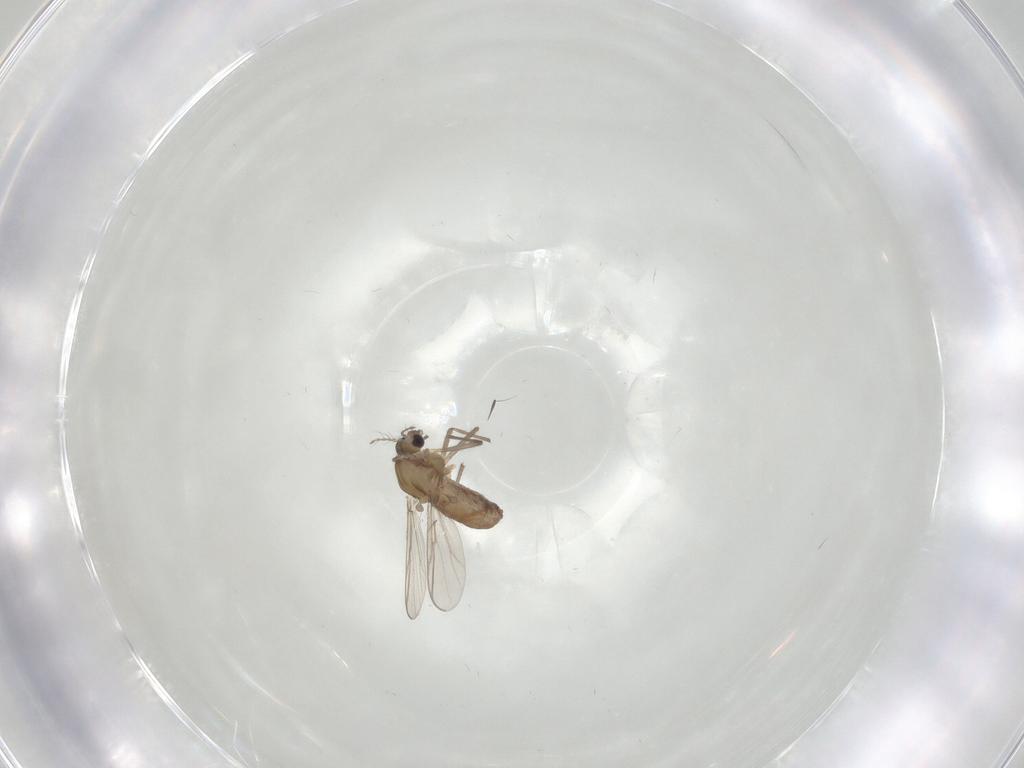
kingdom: Animalia
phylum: Arthropoda
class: Insecta
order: Diptera
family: Chironomidae
